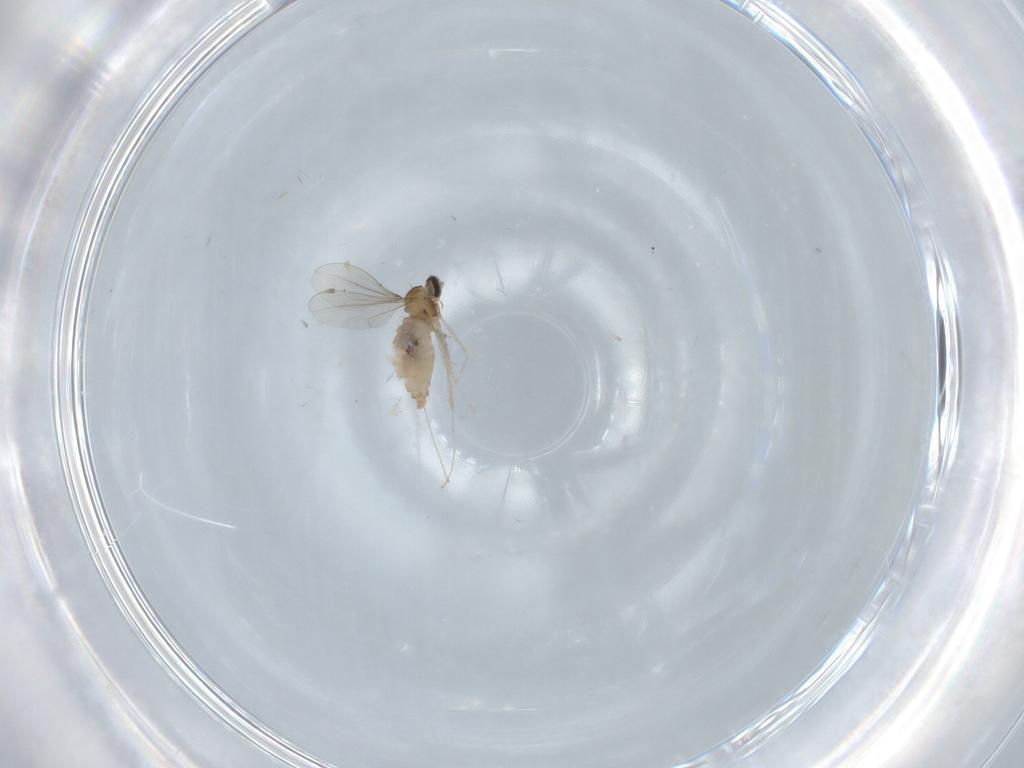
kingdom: Animalia
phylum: Arthropoda
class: Insecta
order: Diptera
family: Cecidomyiidae
